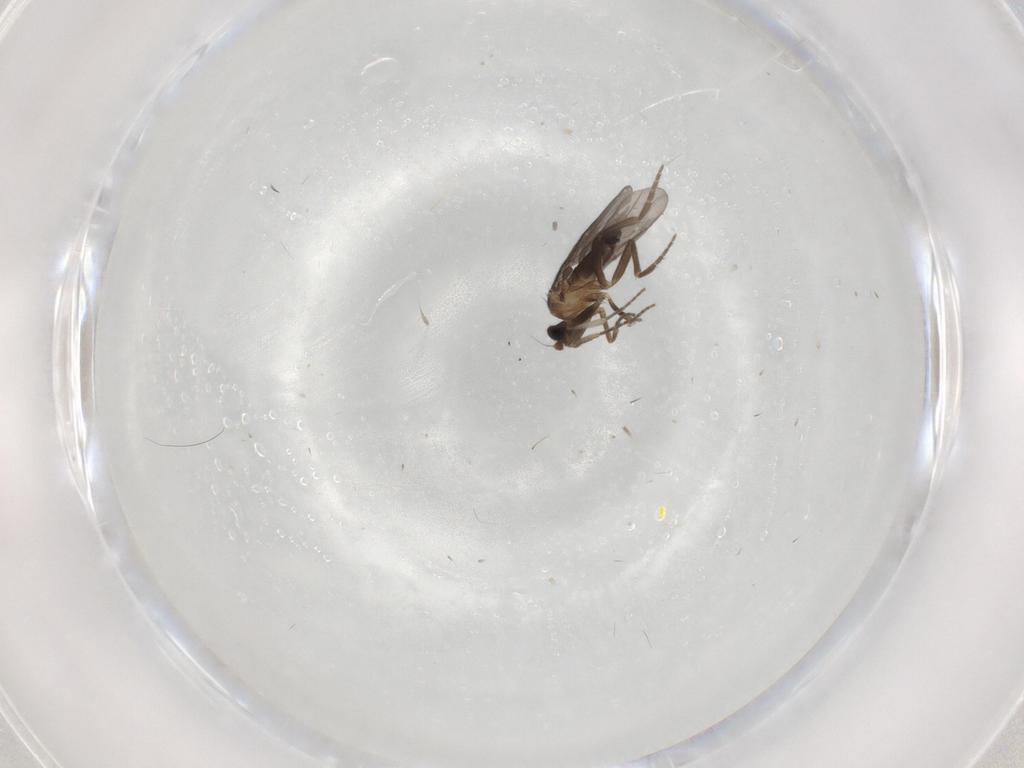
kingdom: Animalia
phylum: Arthropoda
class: Insecta
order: Diptera
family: Phoridae
